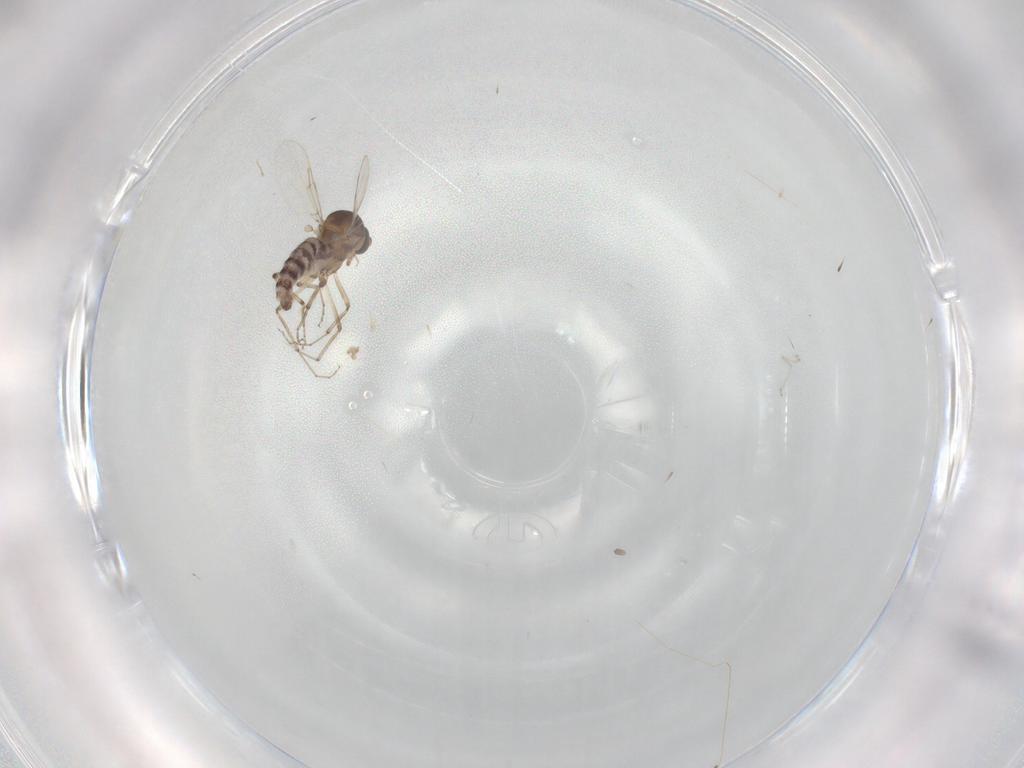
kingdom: Animalia
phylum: Arthropoda
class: Insecta
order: Diptera
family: Ceratopogonidae
